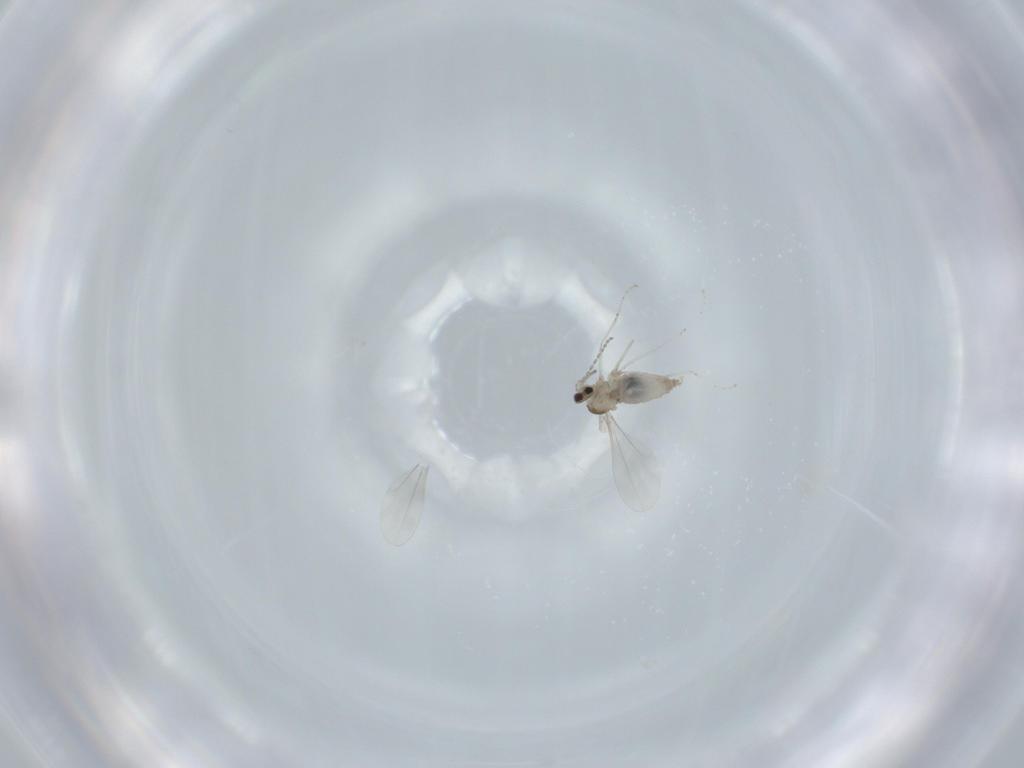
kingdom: Animalia
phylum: Arthropoda
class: Insecta
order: Diptera
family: Cecidomyiidae
